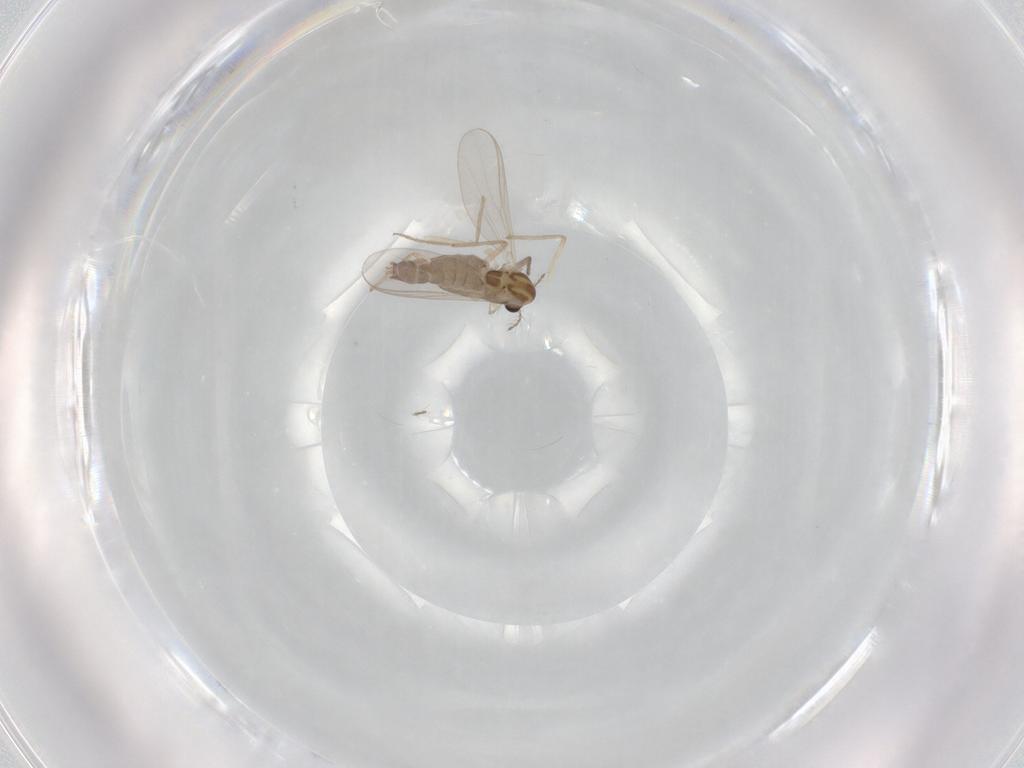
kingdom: Animalia
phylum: Arthropoda
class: Insecta
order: Diptera
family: Chironomidae
